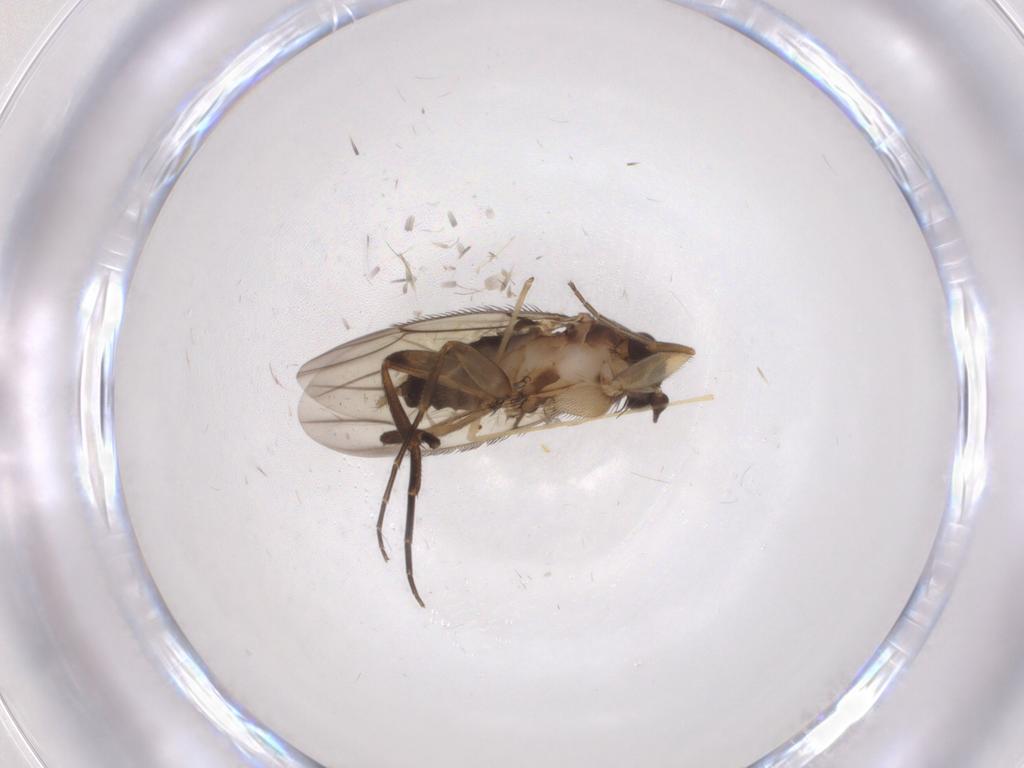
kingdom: Animalia
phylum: Arthropoda
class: Insecta
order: Diptera
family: Phoridae
